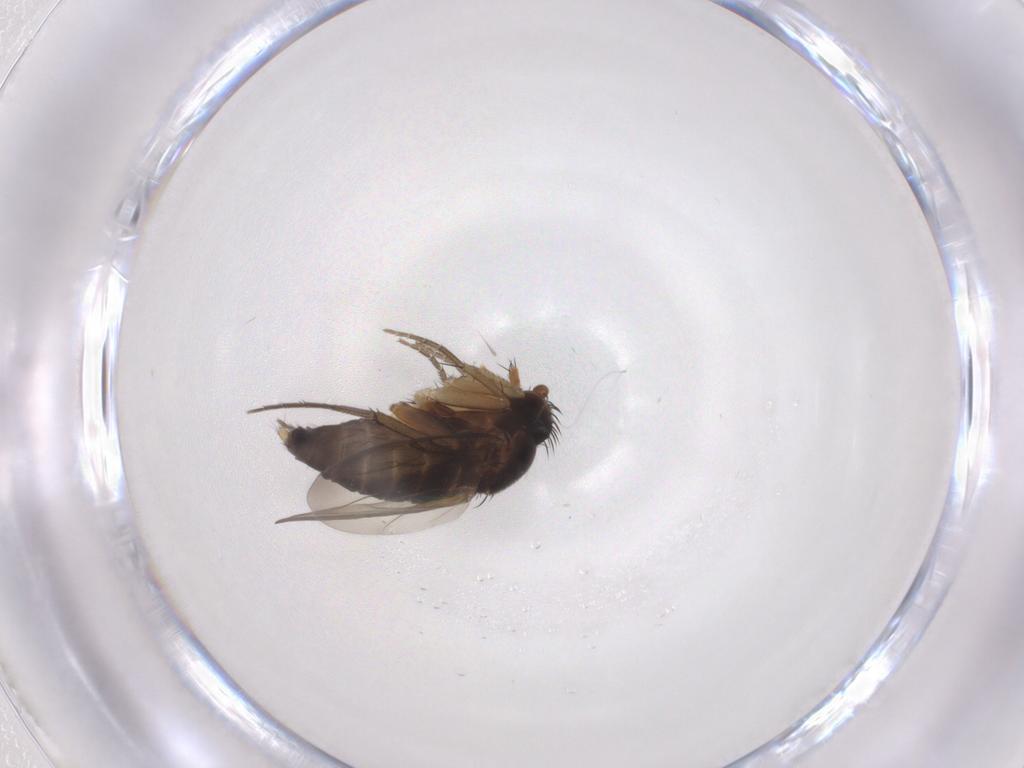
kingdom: Animalia
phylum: Arthropoda
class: Insecta
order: Diptera
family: Phoridae
